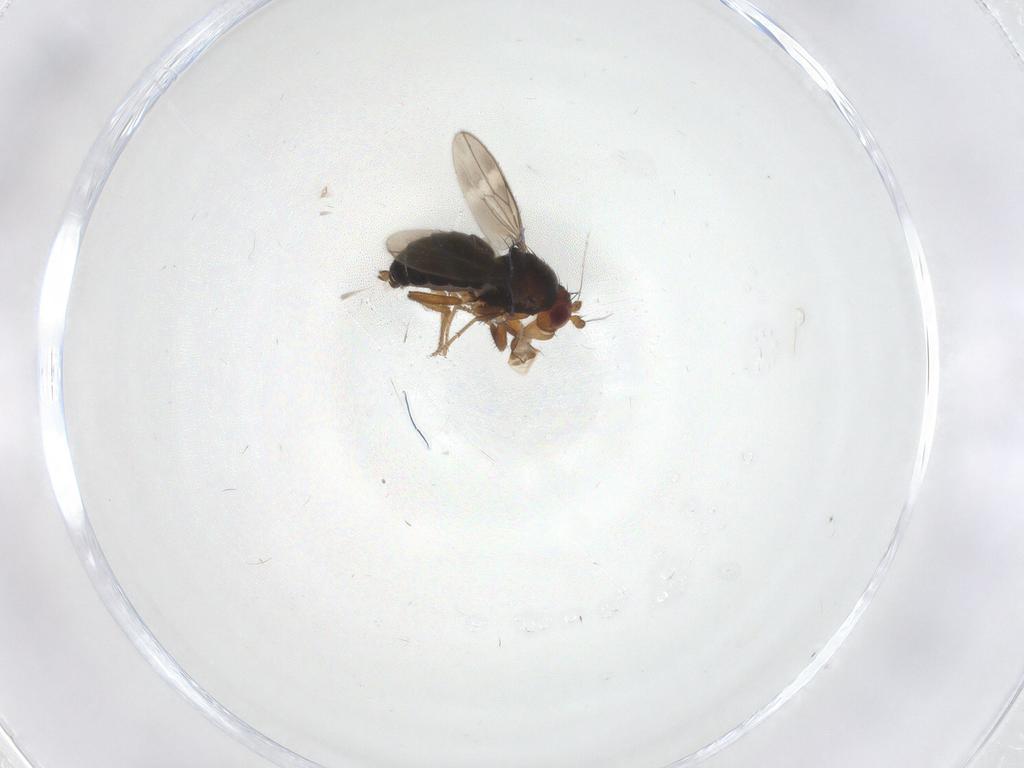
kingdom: Animalia
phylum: Arthropoda
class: Insecta
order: Diptera
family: Sphaeroceridae
